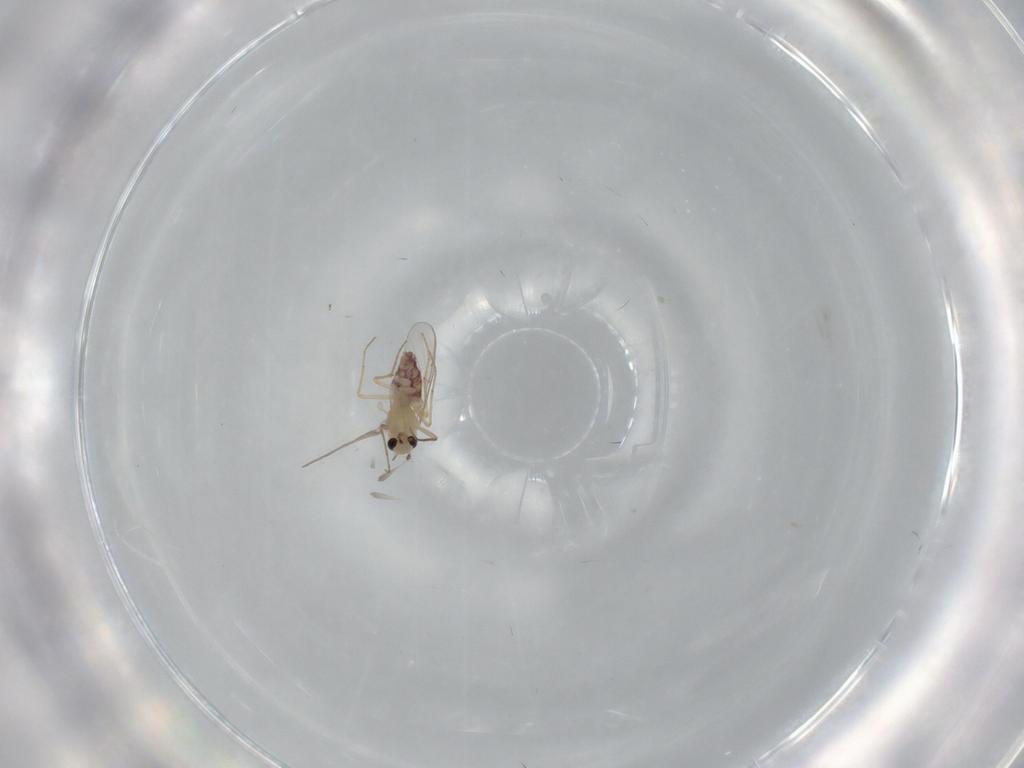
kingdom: Animalia
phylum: Arthropoda
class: Insecta
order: Diptera
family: Chironomidae
